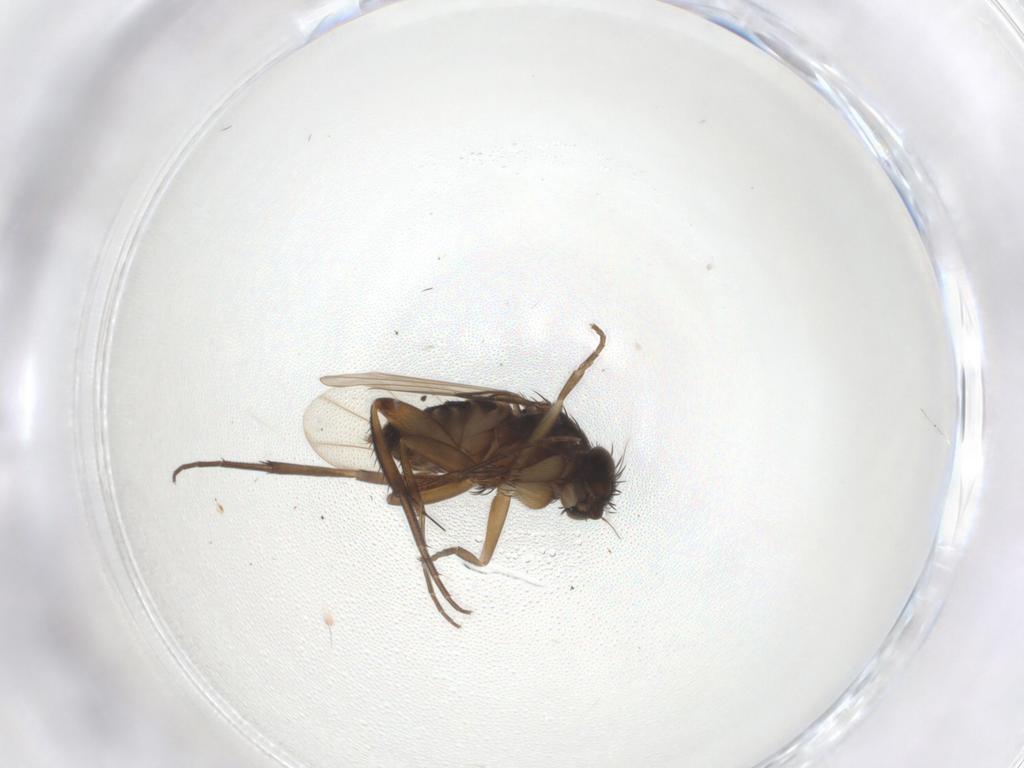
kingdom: Animalia
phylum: Arthropoda
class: Insecta
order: Diptera
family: Phoridae
